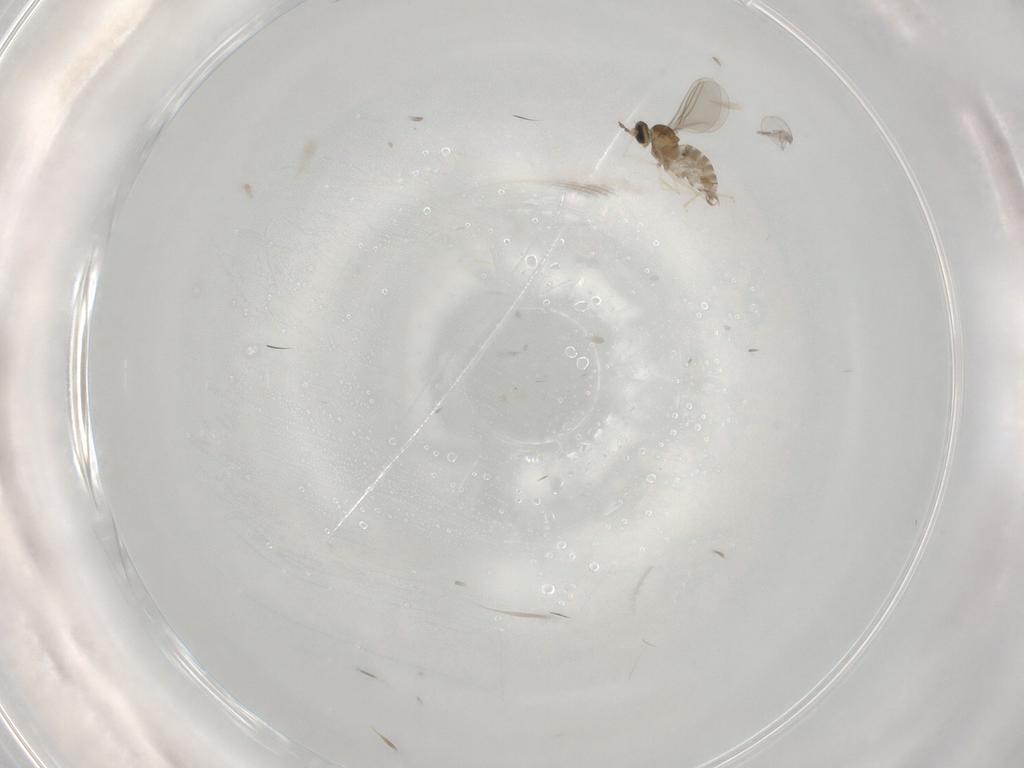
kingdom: Animalia
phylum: Arthropoda
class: Insecta
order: Diptera
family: Cecidomyiidae
